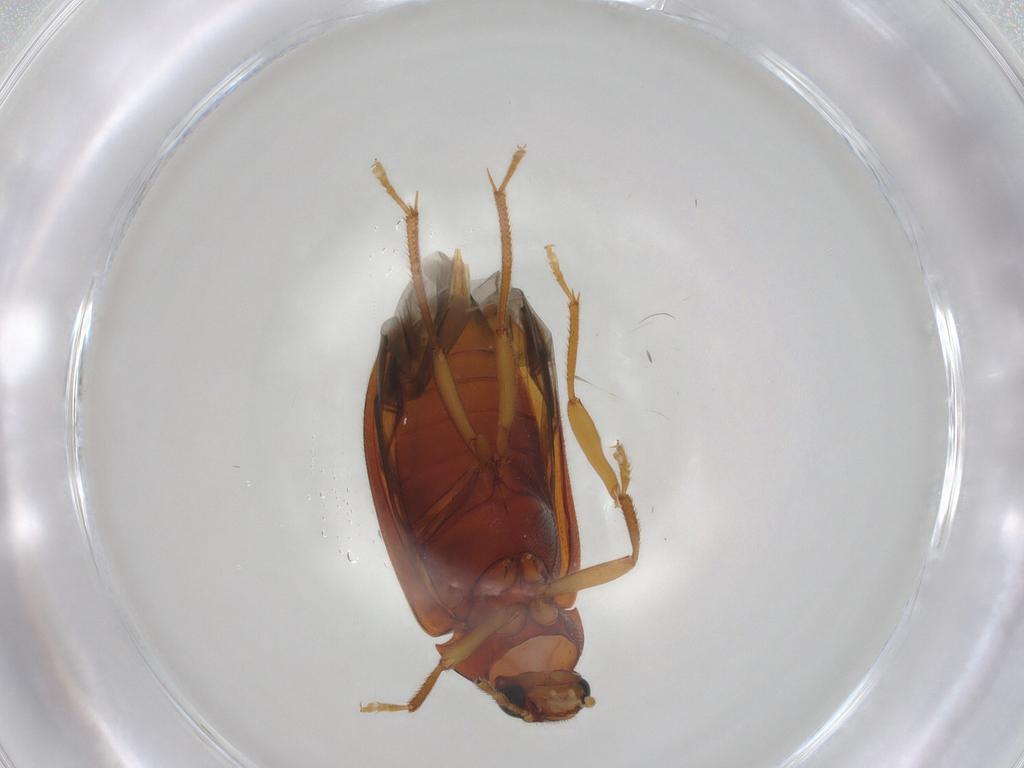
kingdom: Animalia
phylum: Arthropoda
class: Insecta
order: Coleoptera
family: Ptilodactylidae
